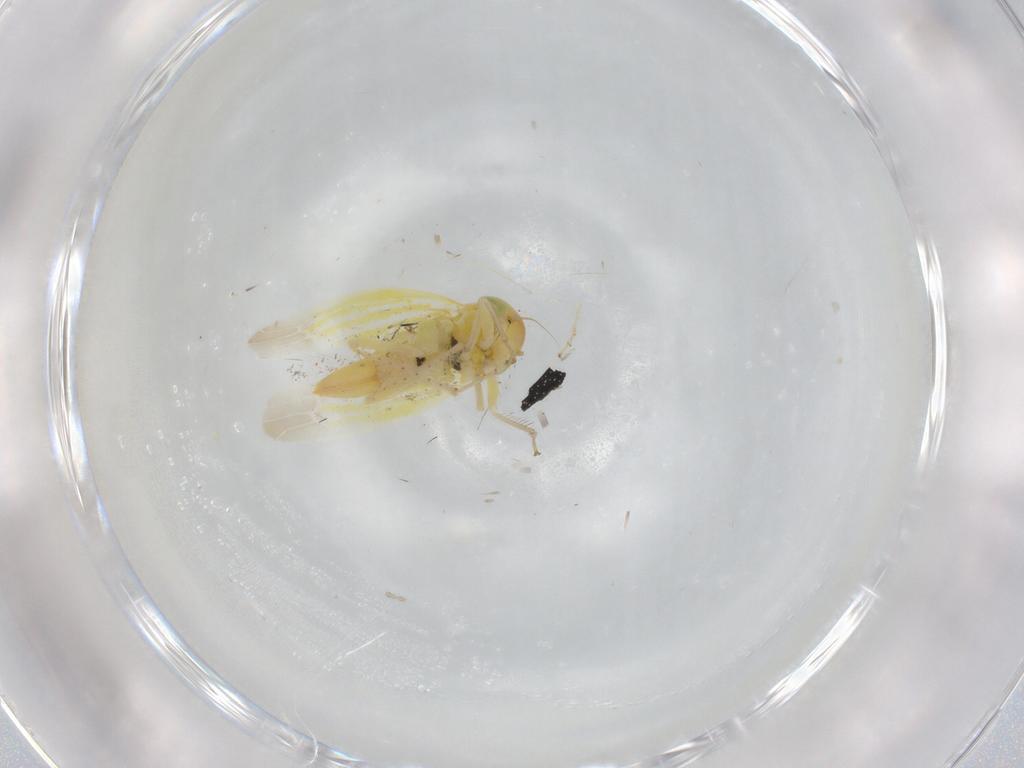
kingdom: Animalia
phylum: Arthropoda
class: Insecta
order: Hemiptera
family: Cicadellidae
